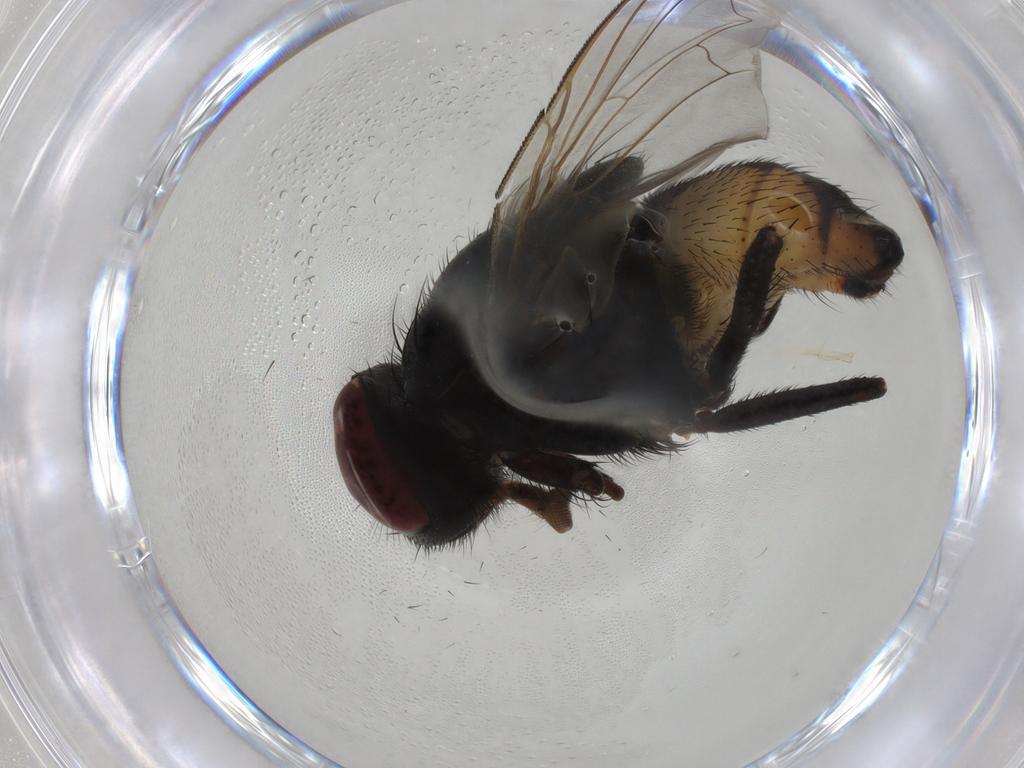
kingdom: Animalia
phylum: Arthropoda
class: Insecta
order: Diptera
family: Muscidae
